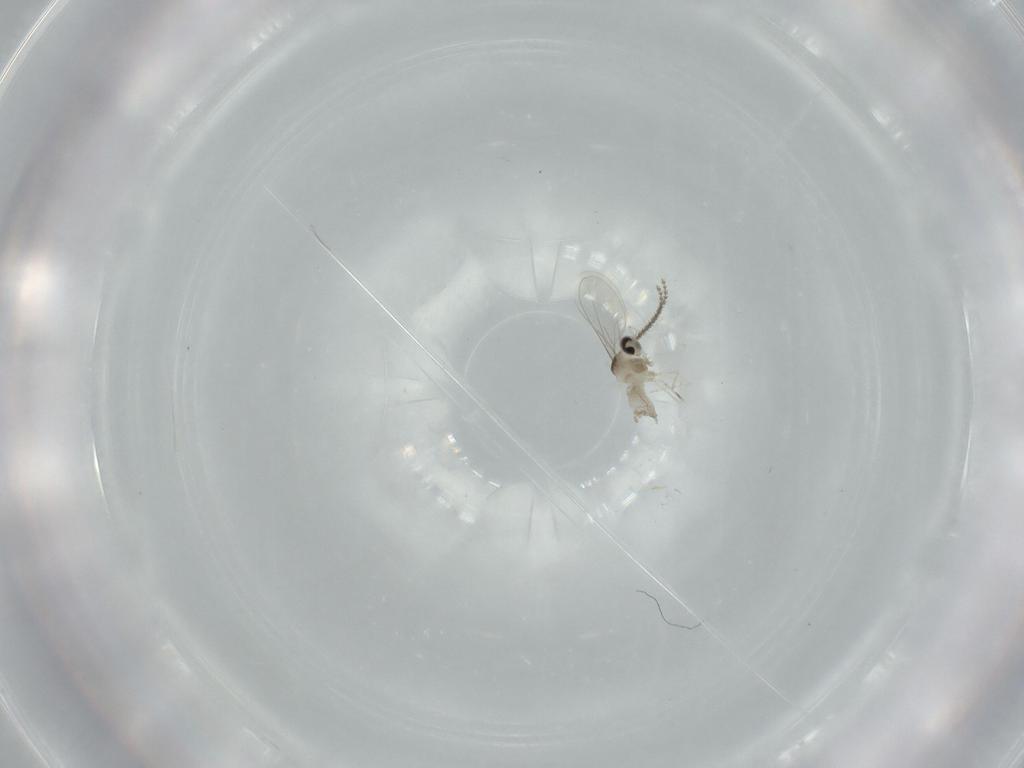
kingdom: Animalia
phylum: Arthropoda
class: Insecta
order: Diptera
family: Cecidomyiidae
